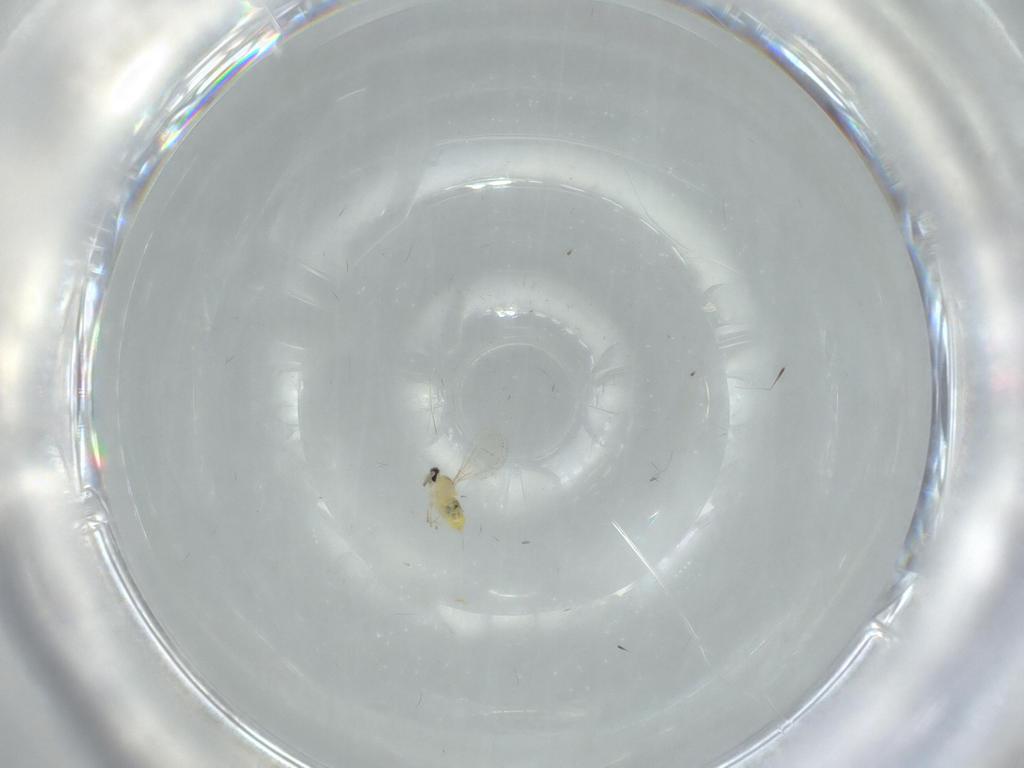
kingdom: Animalia
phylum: Arthropoda
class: Insecta
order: Diptera
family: Cecidomyiidae
